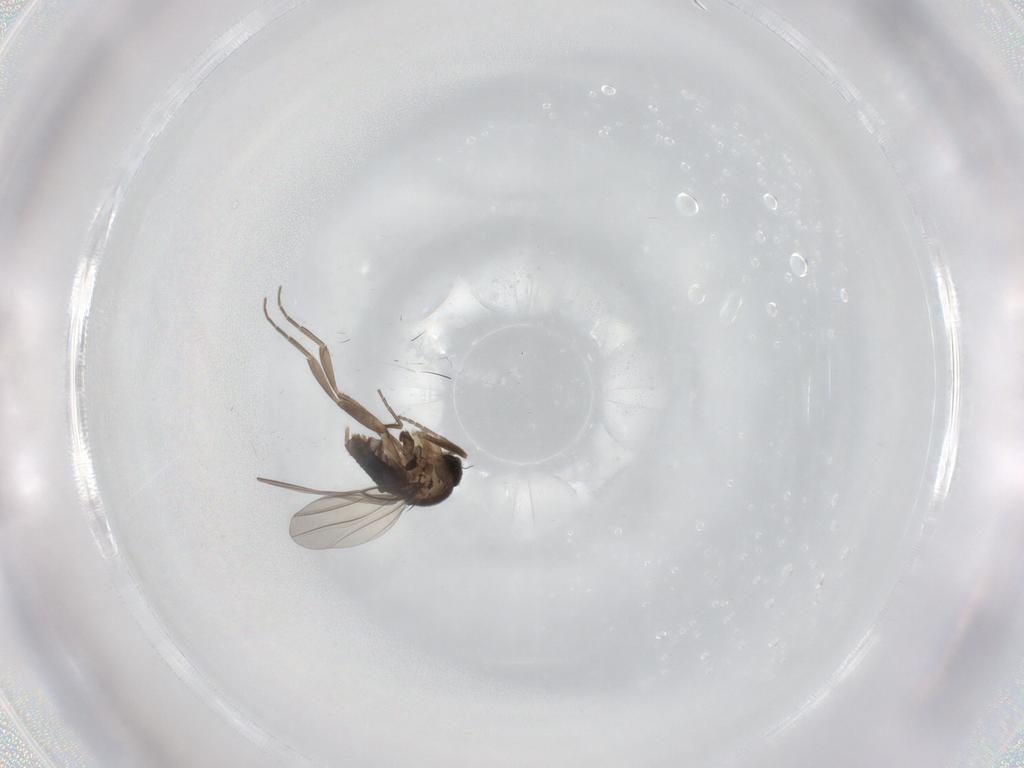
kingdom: Animalia
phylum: Arthropoda
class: Insecta
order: Diptera
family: Phoridae
